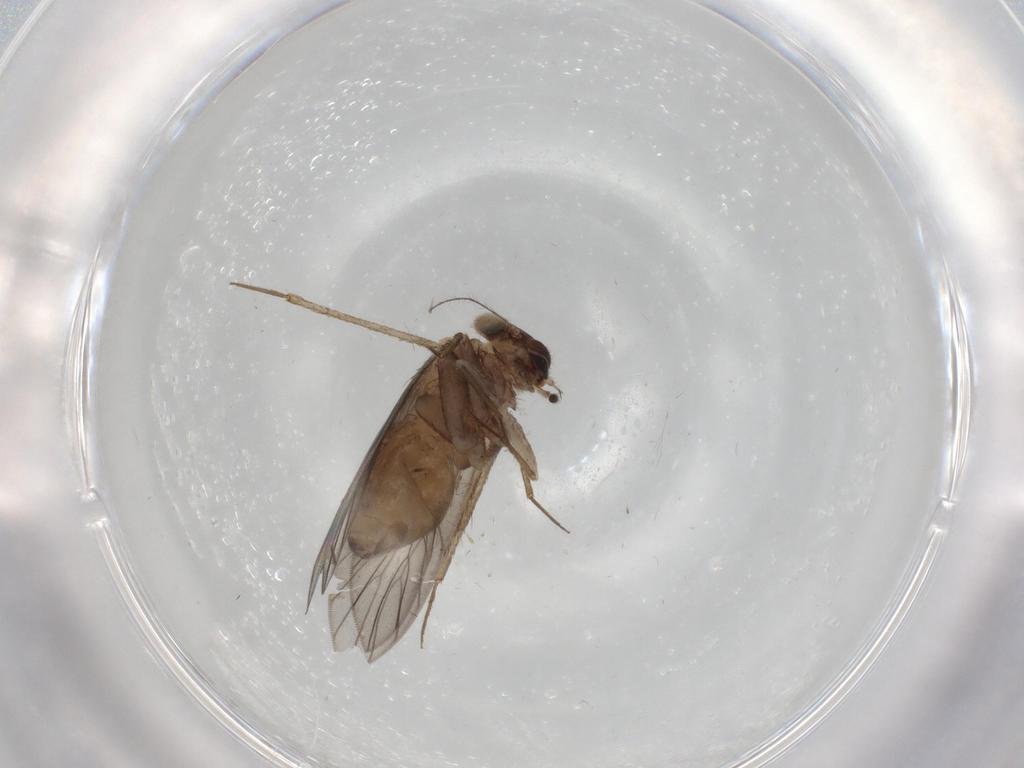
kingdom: Animalia
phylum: Arthropoda
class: Insecta
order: Psocodea
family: Lepidopsocidae
